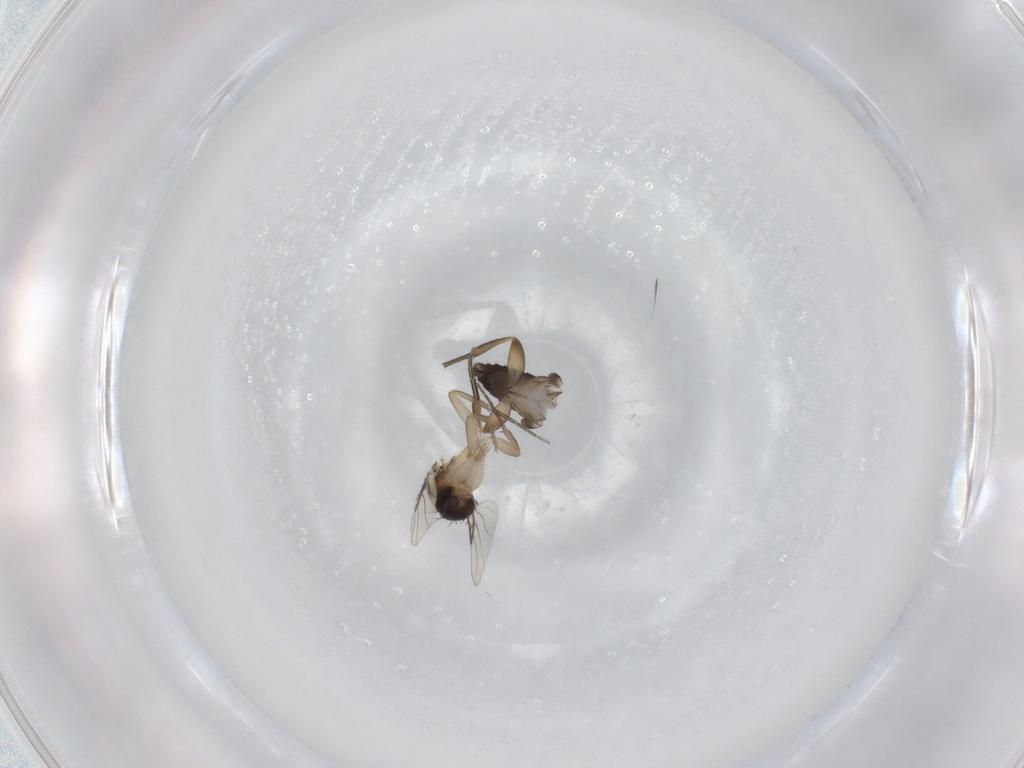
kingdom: Animalia
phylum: Arthropoda
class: Insecta
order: Diptera
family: Phoridae
